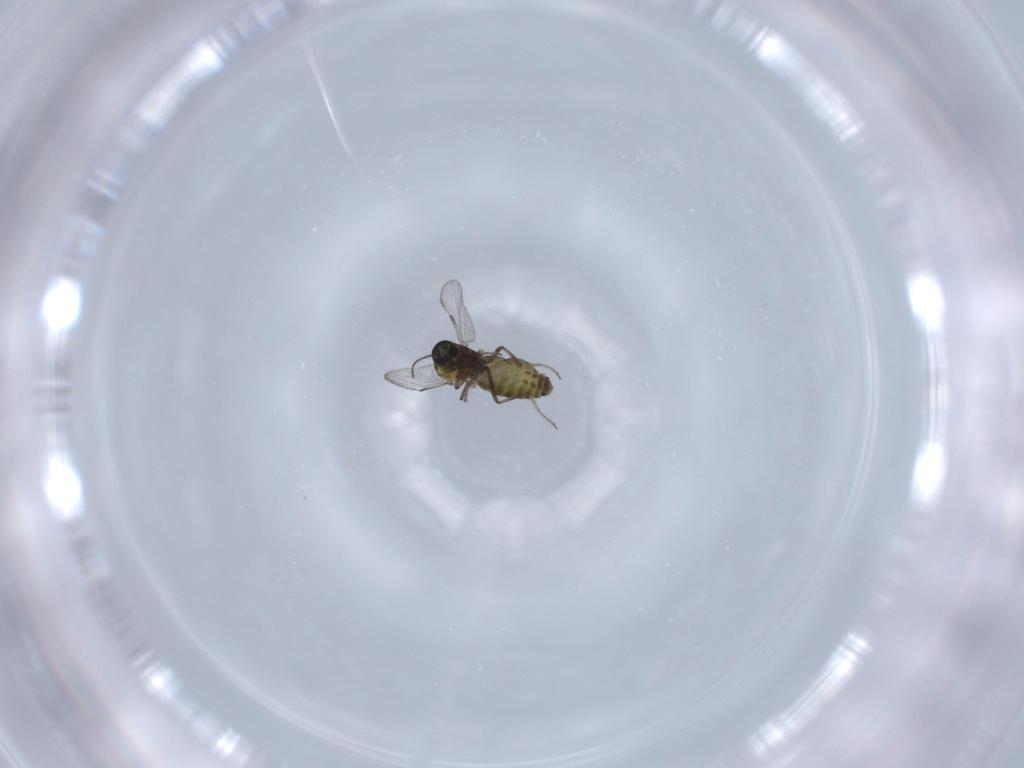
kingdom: Animalia
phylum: Arthropoda
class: Insecta
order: Diptera
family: Ceratopogonidae
